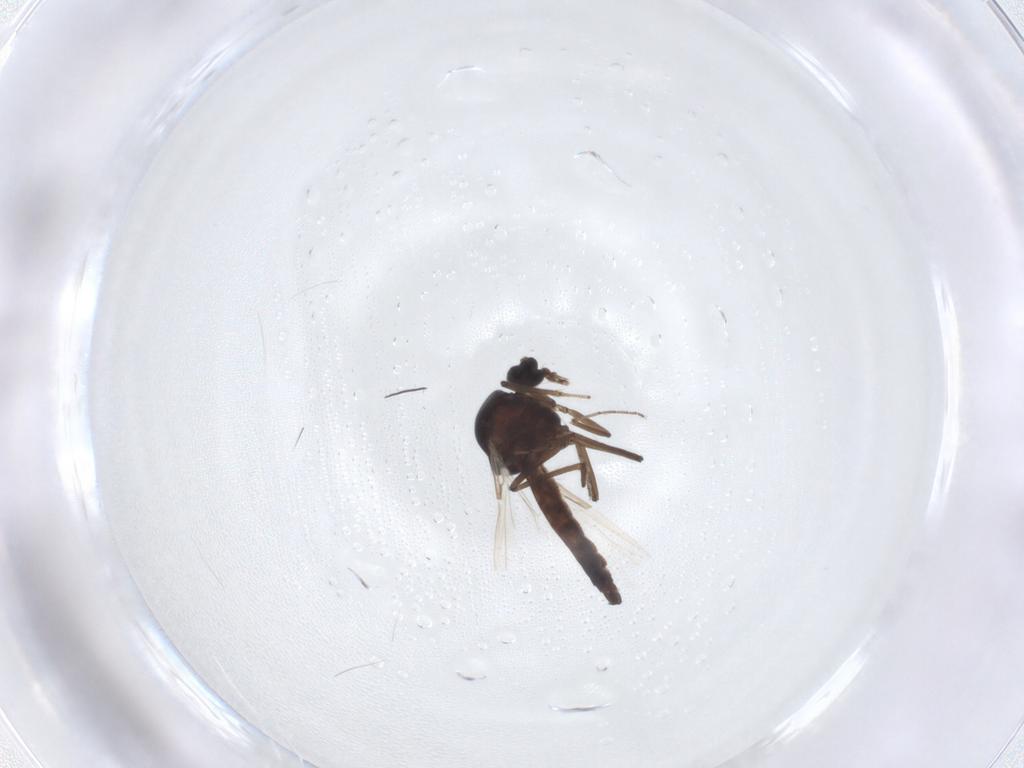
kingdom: Animalia
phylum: Arthropoda
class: Insecta
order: Diptera
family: Ceratopogonidae
